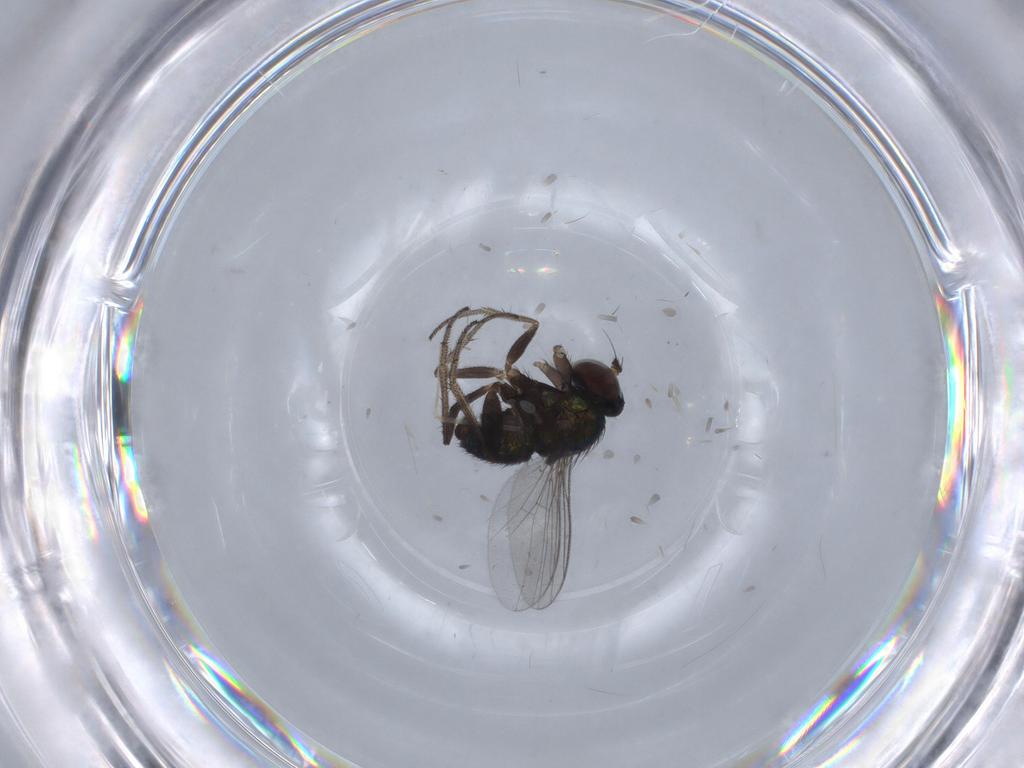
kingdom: Animalia
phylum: Arthropoda
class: Insecta
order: Diptera
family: Chironomidae
